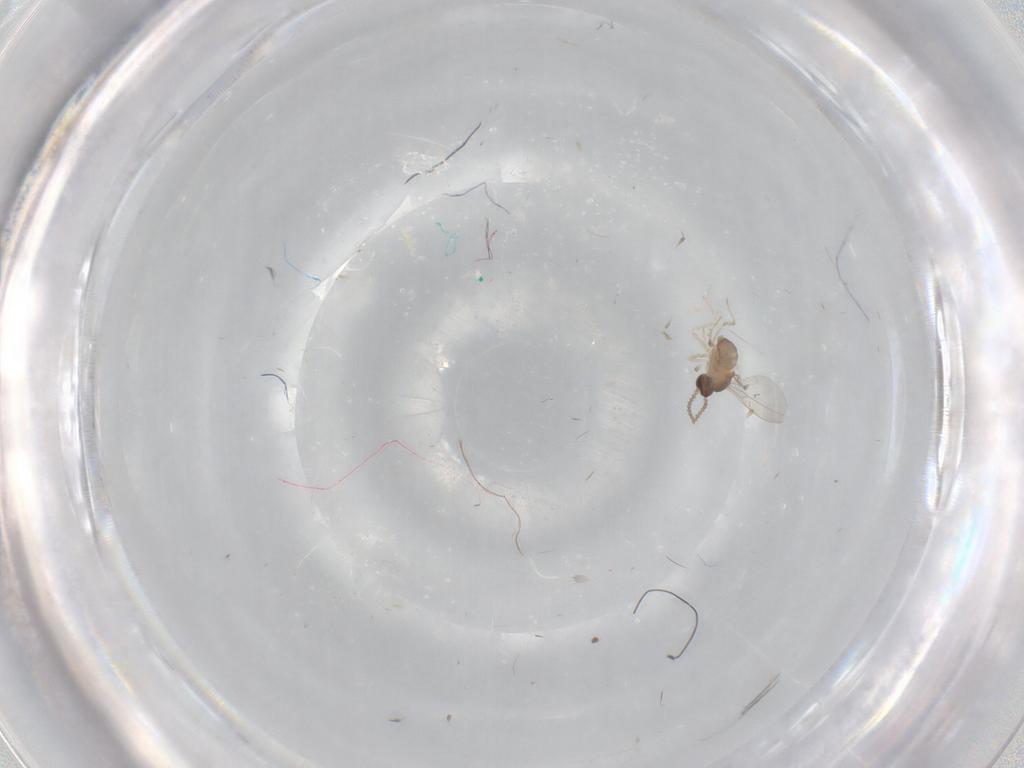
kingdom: Animalia
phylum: Arthropoda
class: Insecta
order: Diptera
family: Cecidomyiidae
